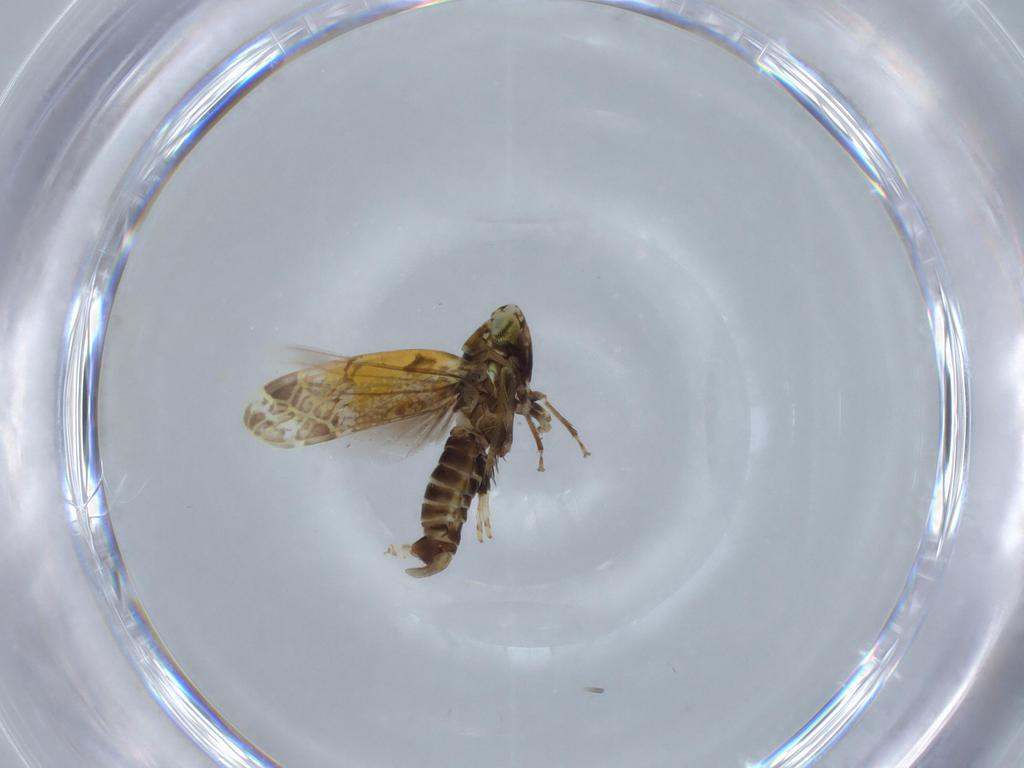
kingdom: Animalia
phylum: Arthropoda
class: Insecta
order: Hemiptera
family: Cicadellidae
